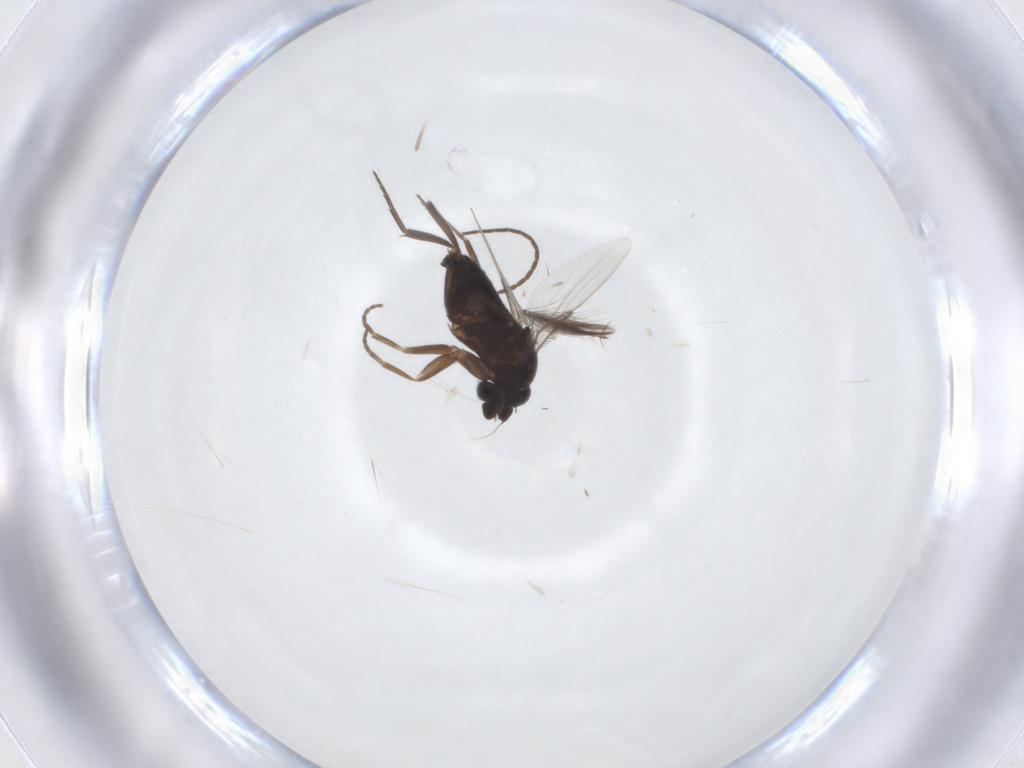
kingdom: Animalia
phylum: Arthropoda
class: Insecta
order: Diptera
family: Phoridae
